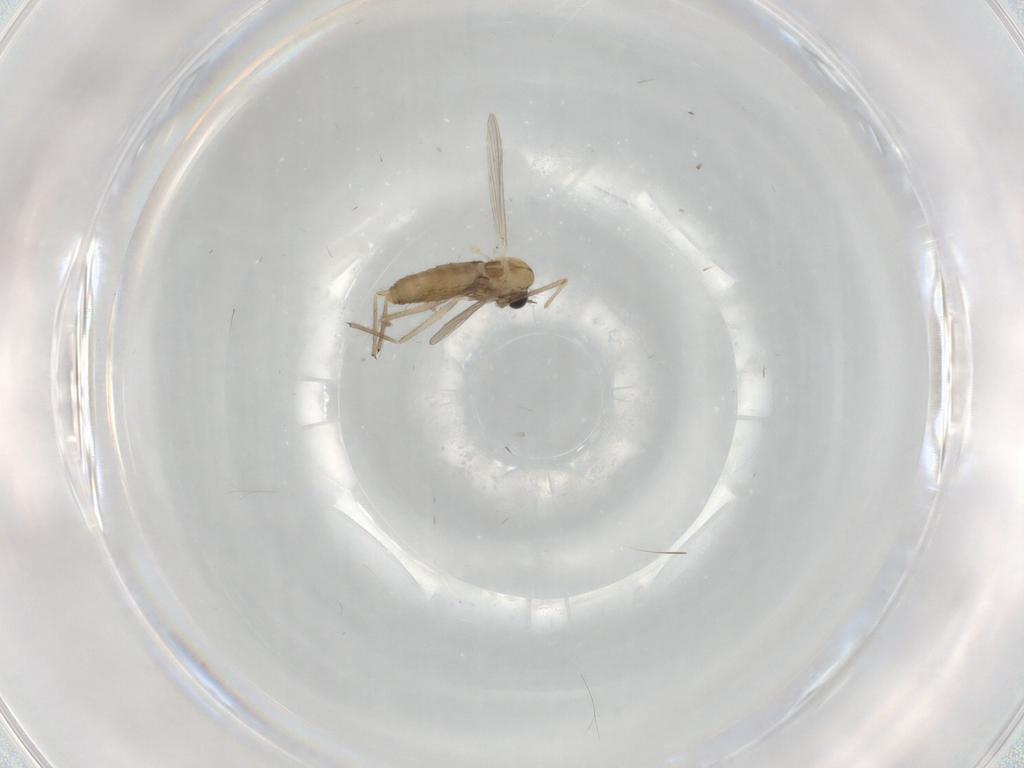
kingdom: Animalia
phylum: Arthropoda
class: Insecta
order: Diptera
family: Chironomidae
